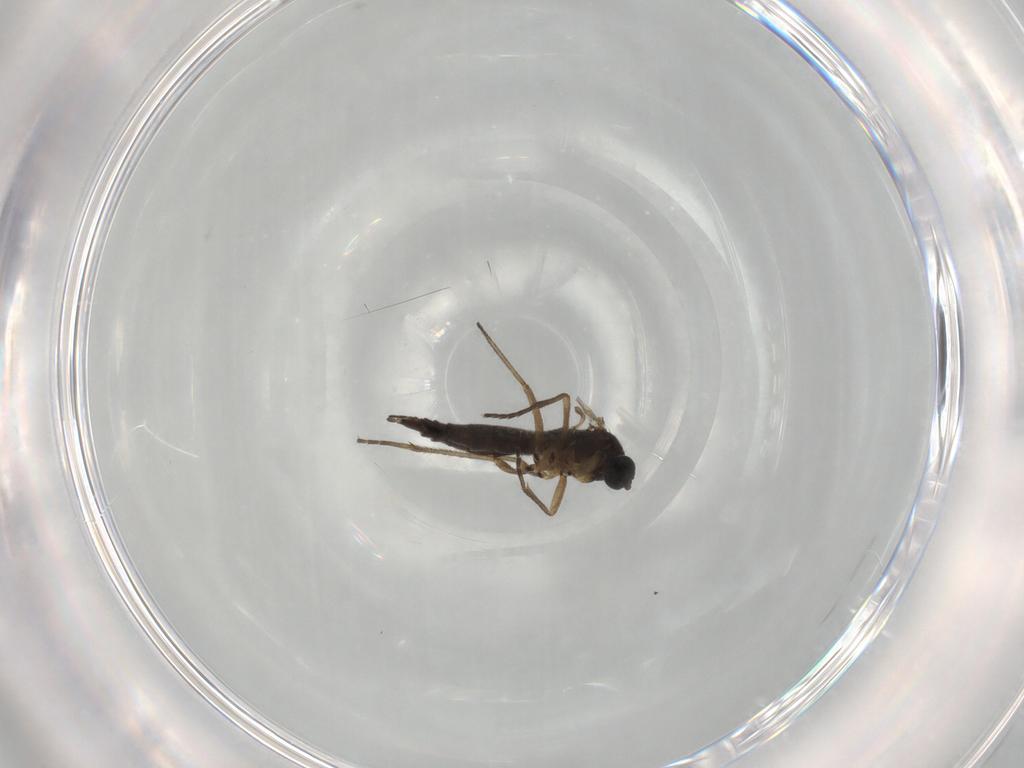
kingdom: Animalia
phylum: Arthropoda
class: Insecta
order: Diptera
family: Sciaridae
